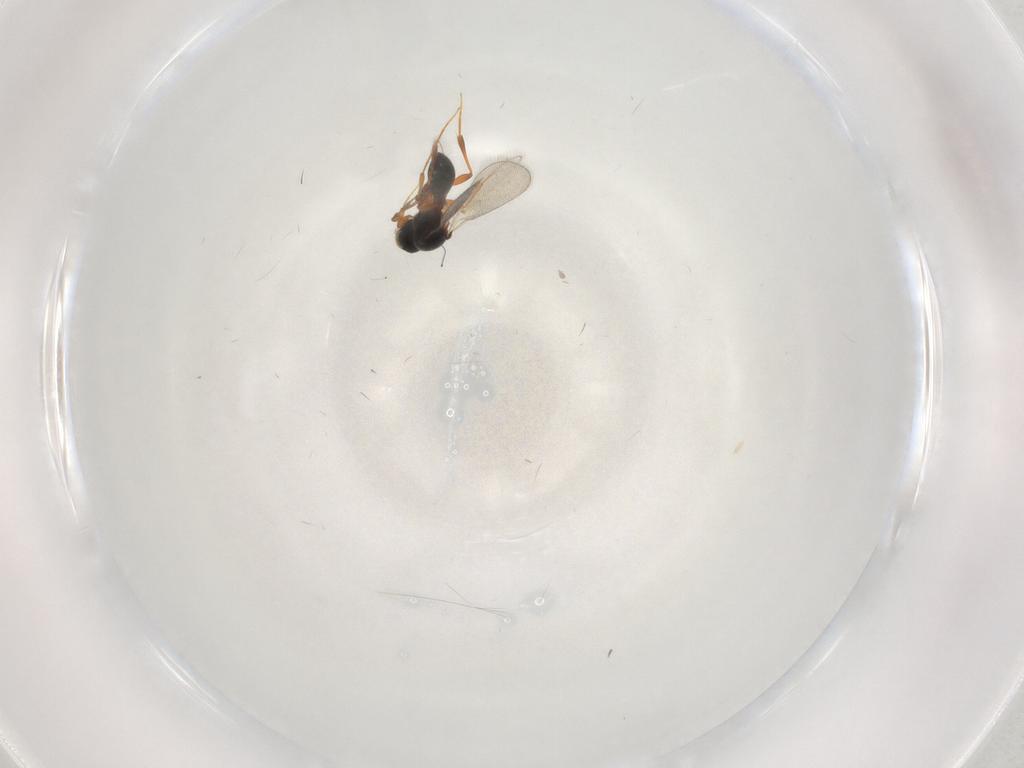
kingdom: Animalia
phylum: Arthropoda
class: Insecta
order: Hymenoptera
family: Platygastridae
